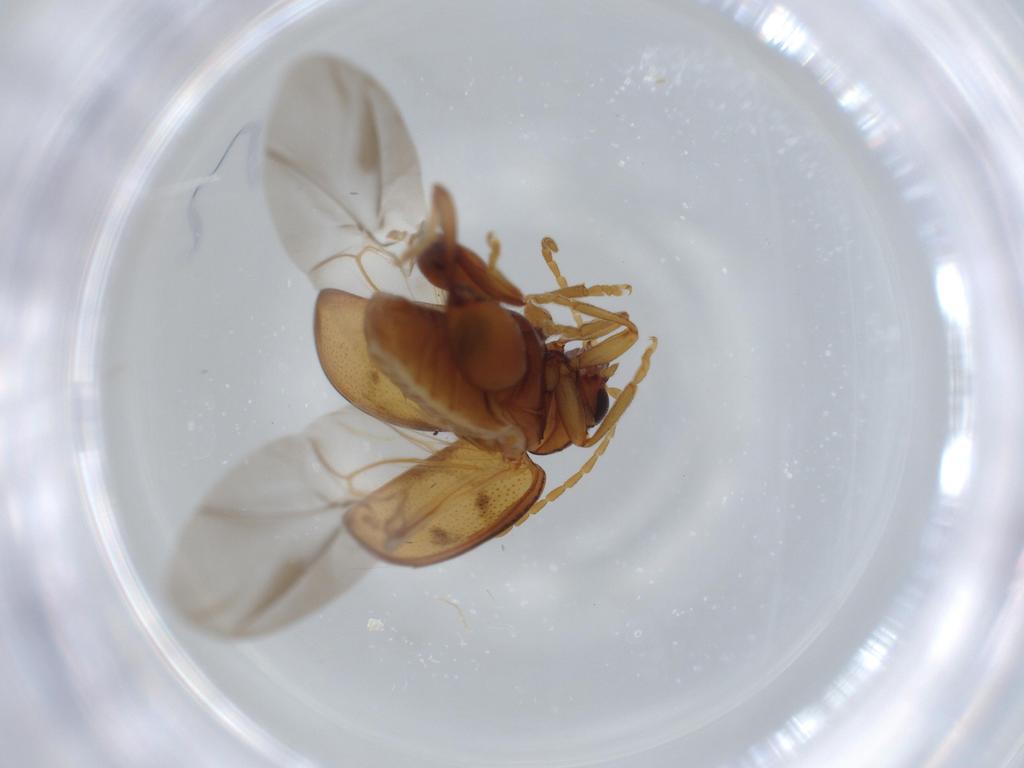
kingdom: Animalia
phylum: Arthropoda
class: Insecta
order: Coleoptera
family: Chrysomelidae
